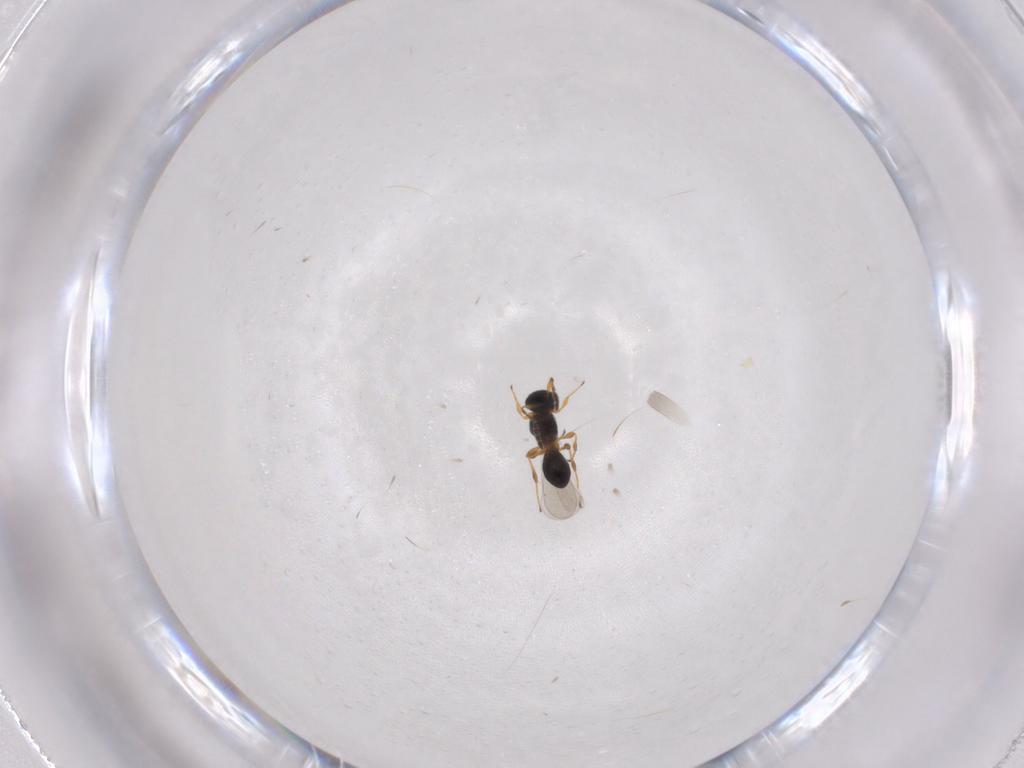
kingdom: Animalia
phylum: Arthropoda
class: Insecta
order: Hymenoptera
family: Platygastridae
